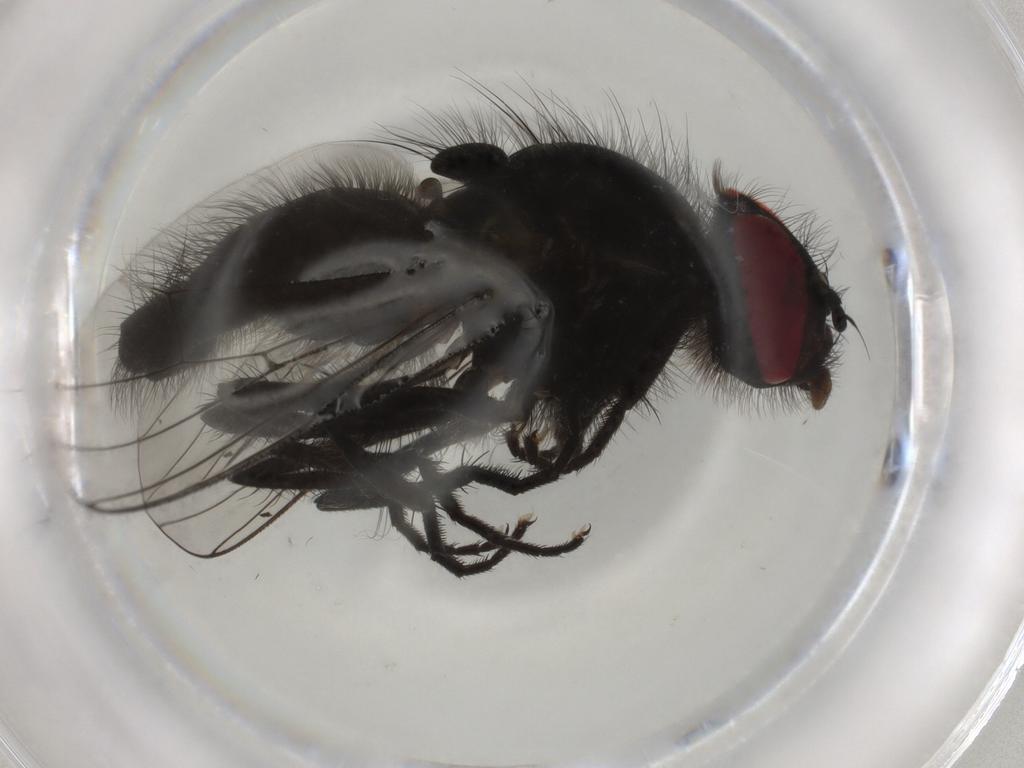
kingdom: Animalia
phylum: Arthropoda
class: Insecta
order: Diptera
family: Muscidae
